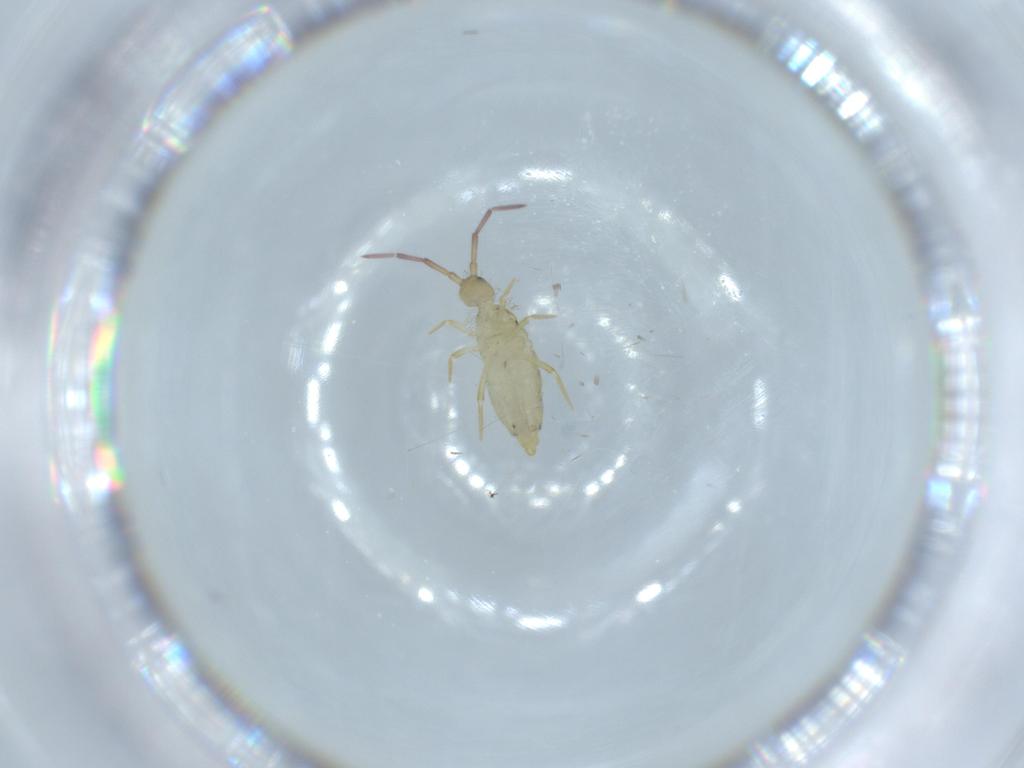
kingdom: Animalia
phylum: Arthropoda
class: Collembola
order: Entomobryomorpha
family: Entomobryidae
